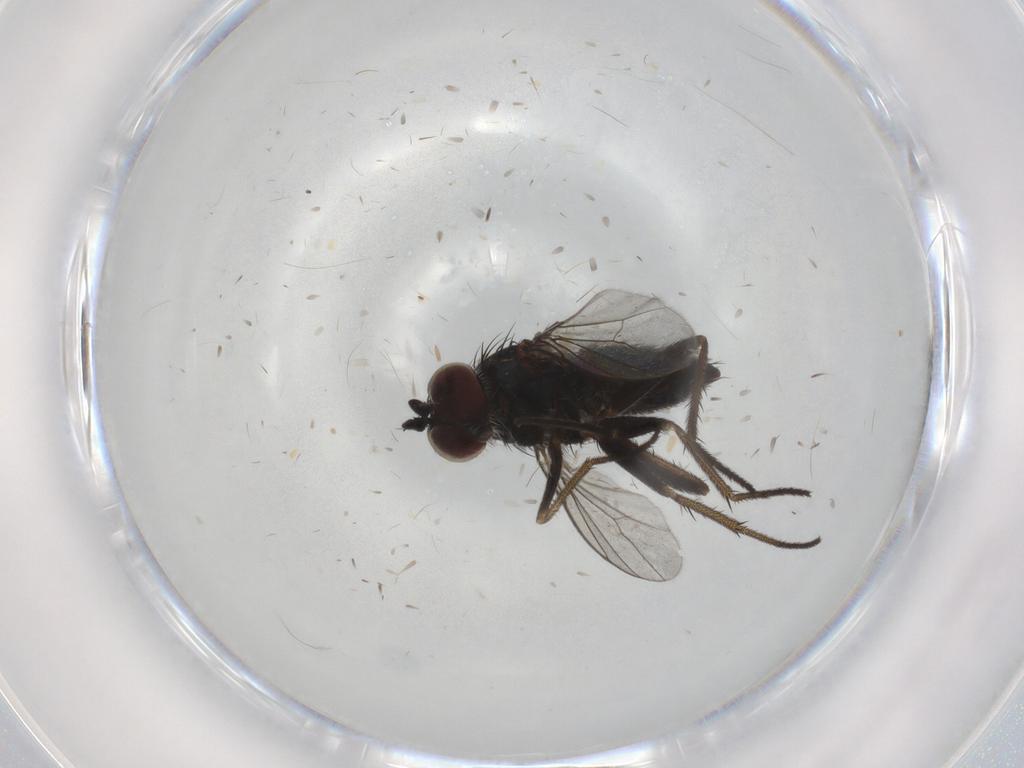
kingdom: Animalia
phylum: Arthropoda
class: Insecta
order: Diptera
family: Dolichopodidae
